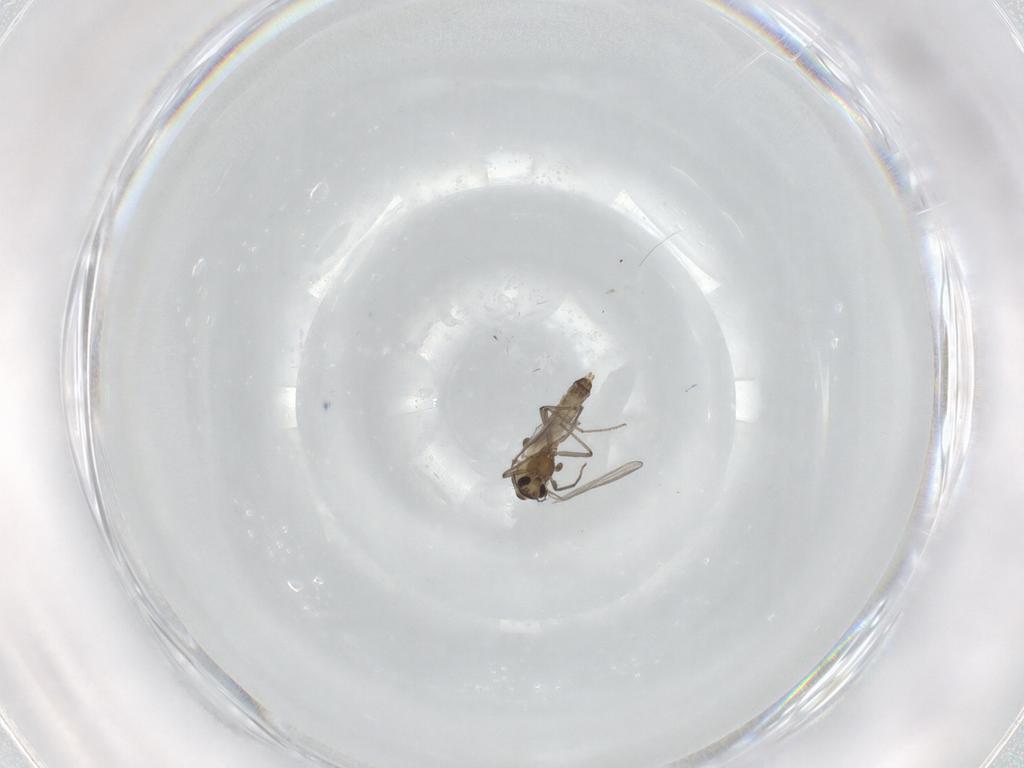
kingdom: Animalia
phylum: Arthropoda
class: Insecta
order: Diptera
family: Chironomidae
